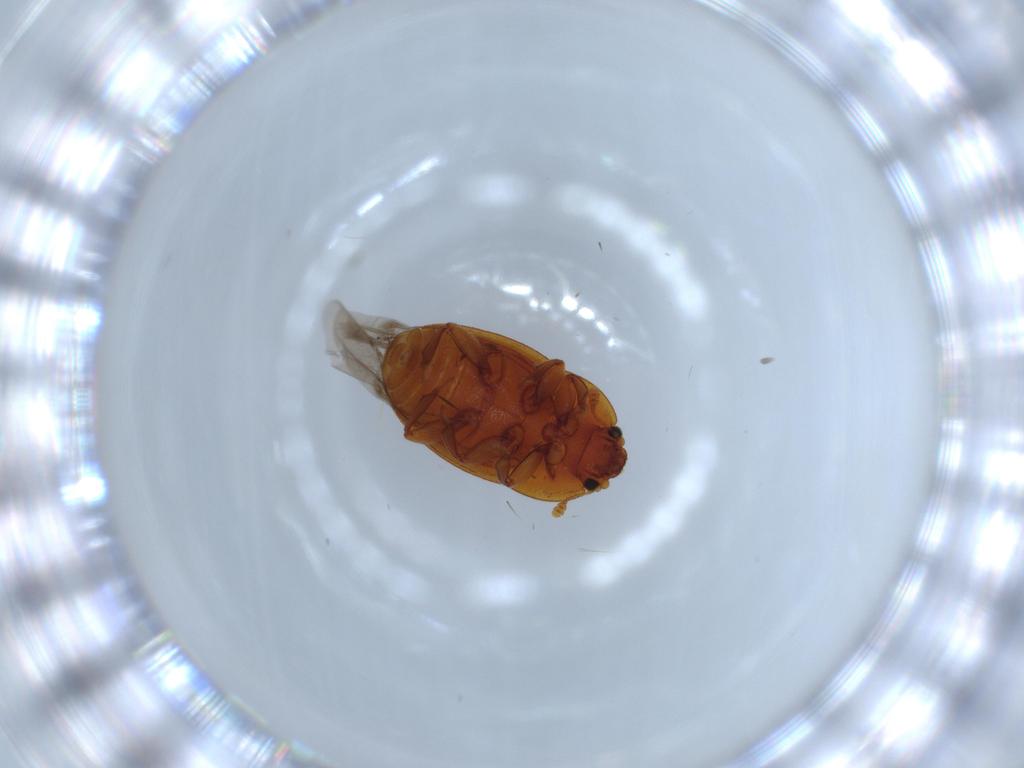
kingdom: Animalia
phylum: Arthropoda
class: Insecta
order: Coleoptera
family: Nitidulidae
